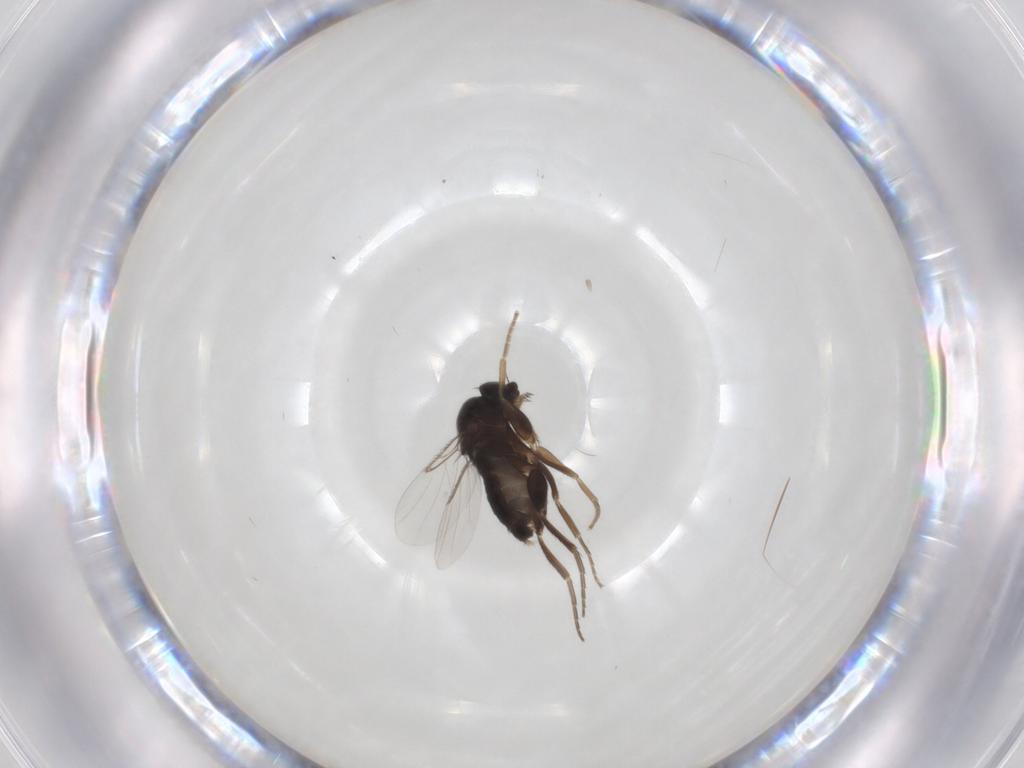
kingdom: Animalia
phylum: Arthropoda
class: Insecta
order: Diptera
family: Phoridae
